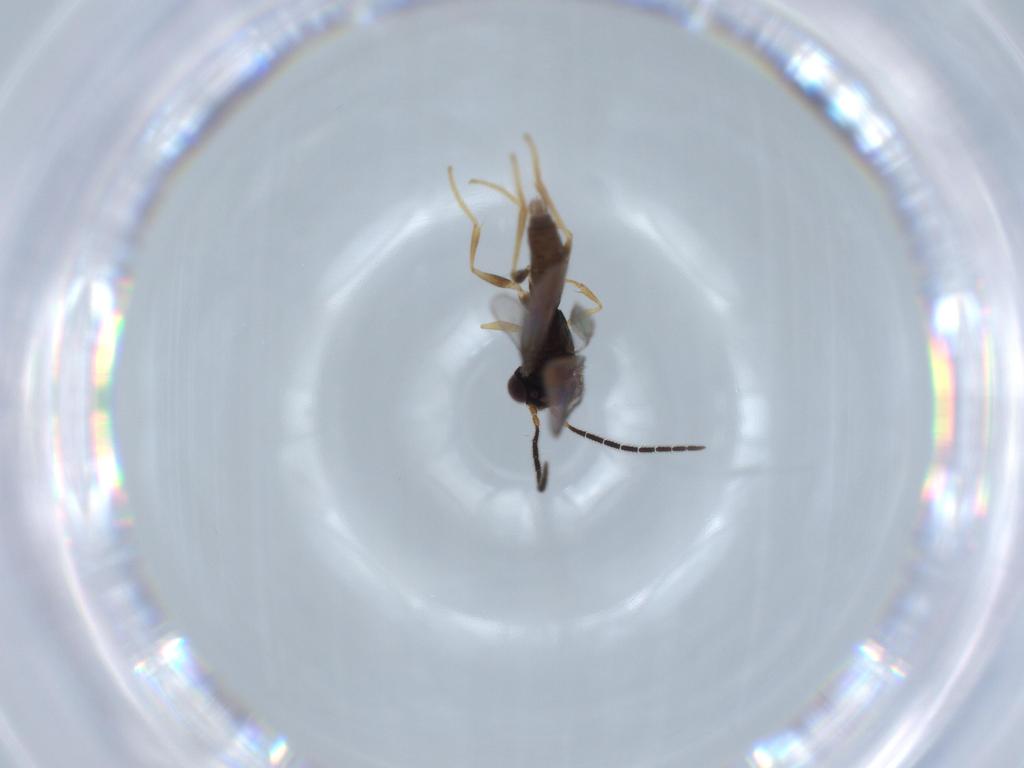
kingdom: Animalia
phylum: Arthropoda
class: Insecta
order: Hymenoptera
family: Dryinidae
